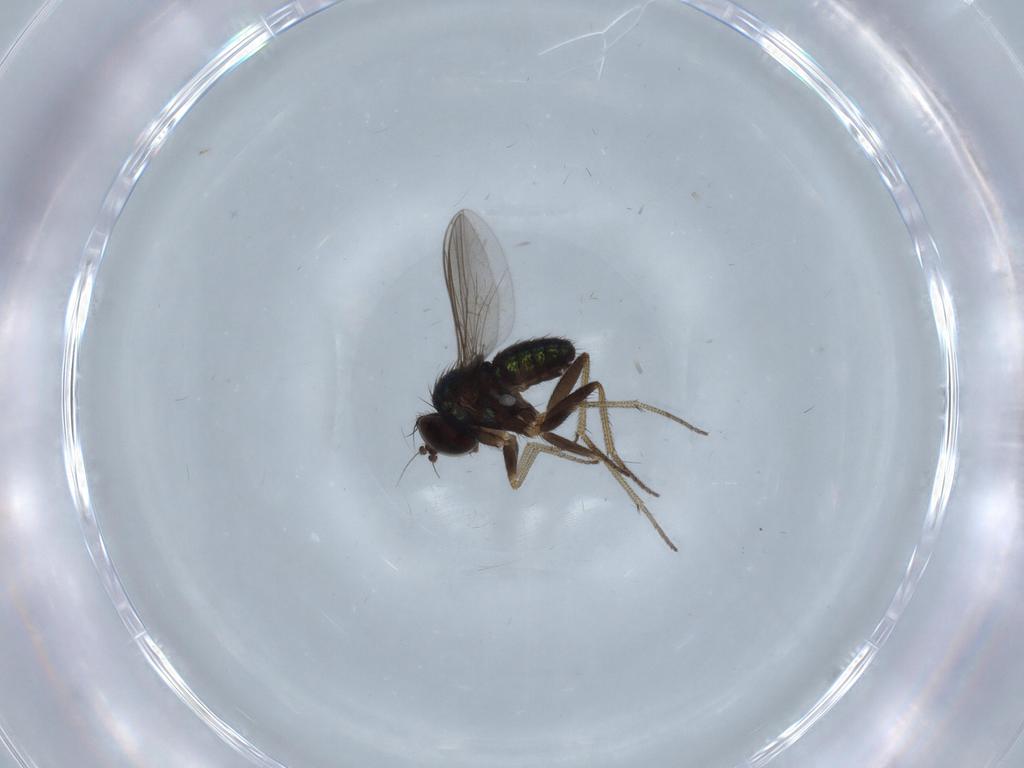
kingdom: Animalia
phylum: Arthropoda
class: Insecta
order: Diptera
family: Dolichopodidae
